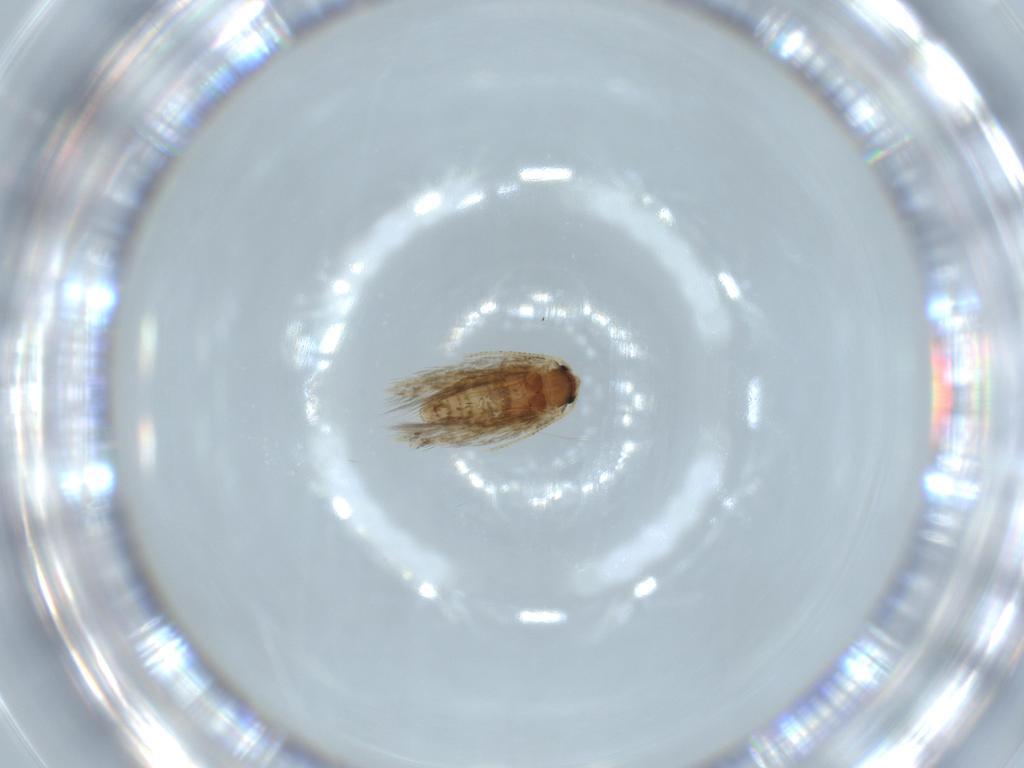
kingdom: Animalia
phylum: Arthropoda
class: Insecta
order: Lepidoptera
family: Nepticulidae
